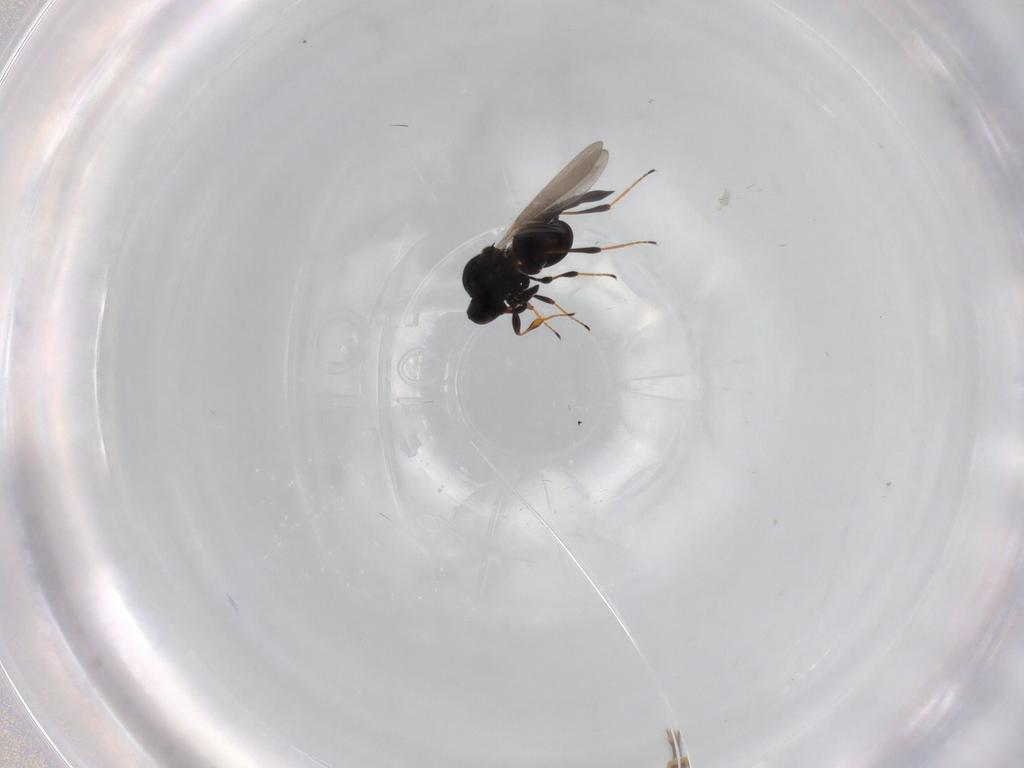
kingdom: Animalia
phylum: Arthropoda
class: Insecta
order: Hymenoptera
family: Platygastridae
